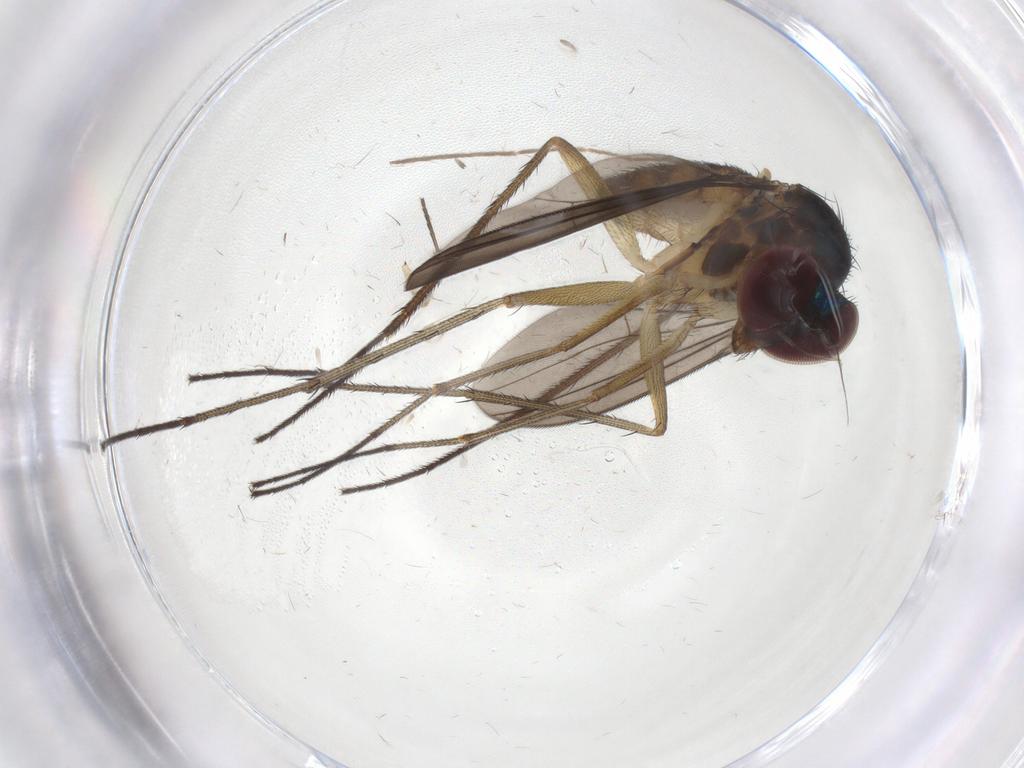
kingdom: Animalia
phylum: Arthropoda
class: Insecta
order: Diptera
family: Dolichopodidae
